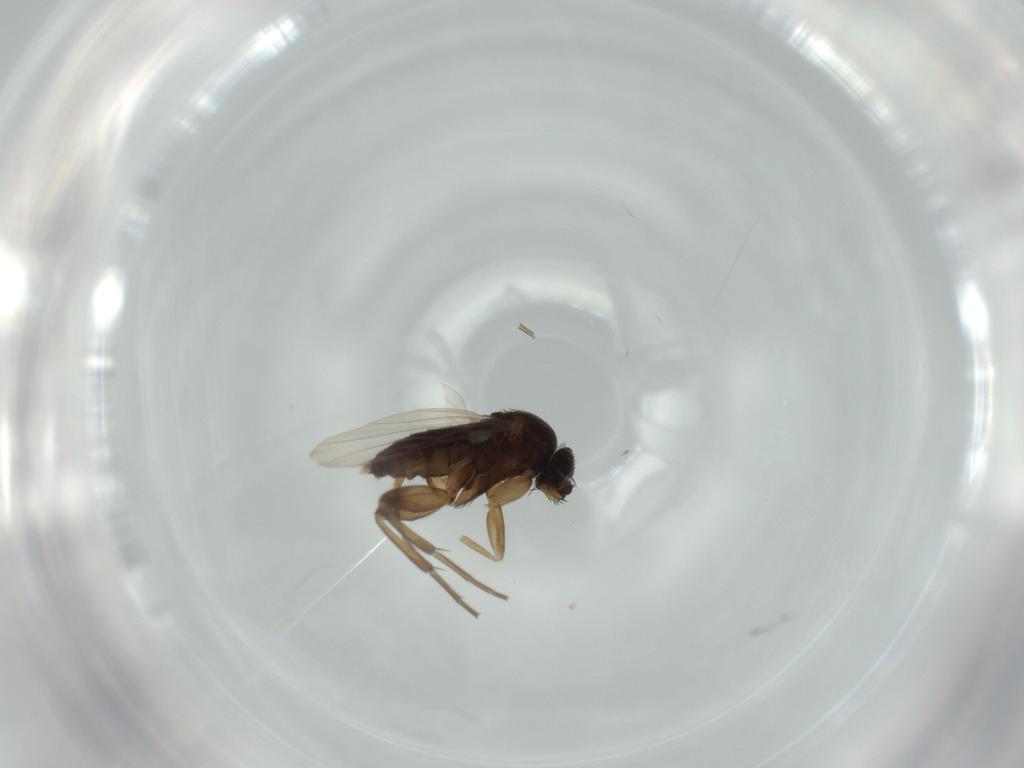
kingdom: Animalia
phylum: Arthropoda
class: Insecta
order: Diptera
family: Phoridae
